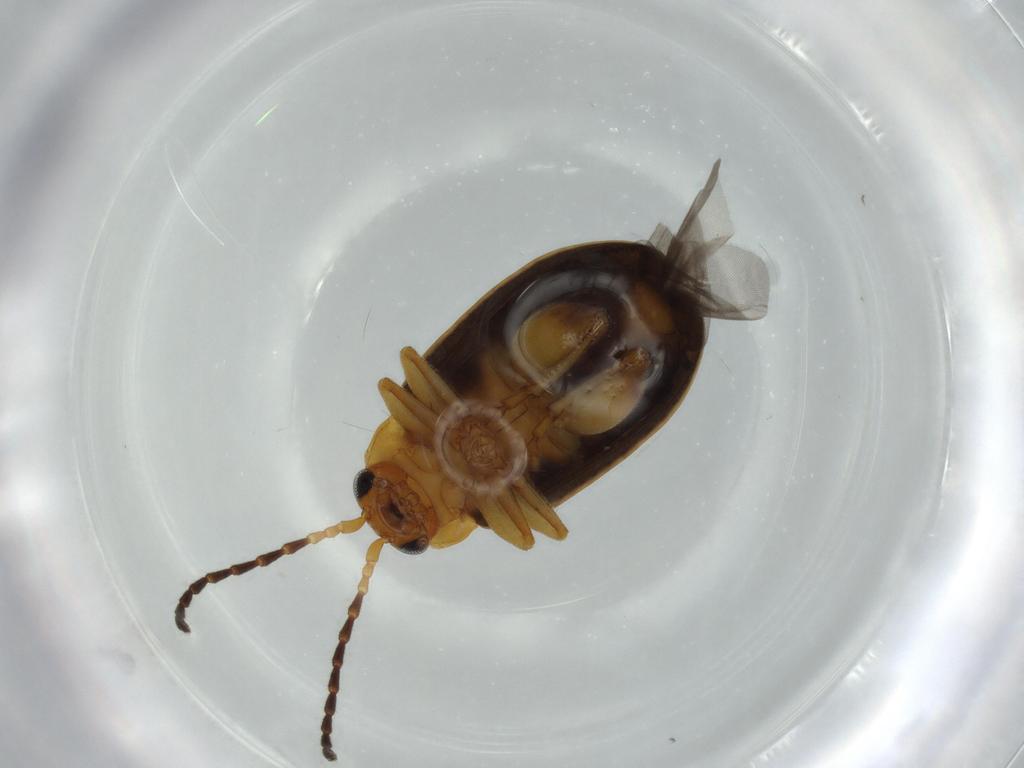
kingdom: Animalia
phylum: Arthropoda
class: Insecta
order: Coleoptera
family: Chrysomelidae
